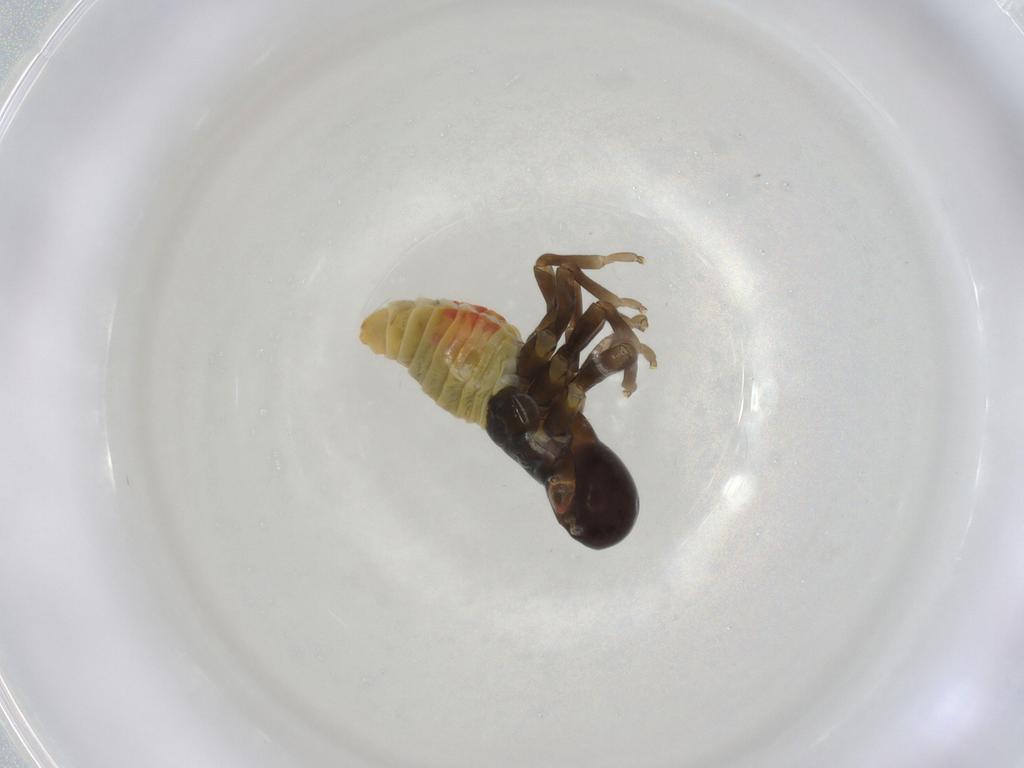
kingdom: Animalia
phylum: Arthropoda
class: Insecta
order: Hemiptera
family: Aphrophoridae
